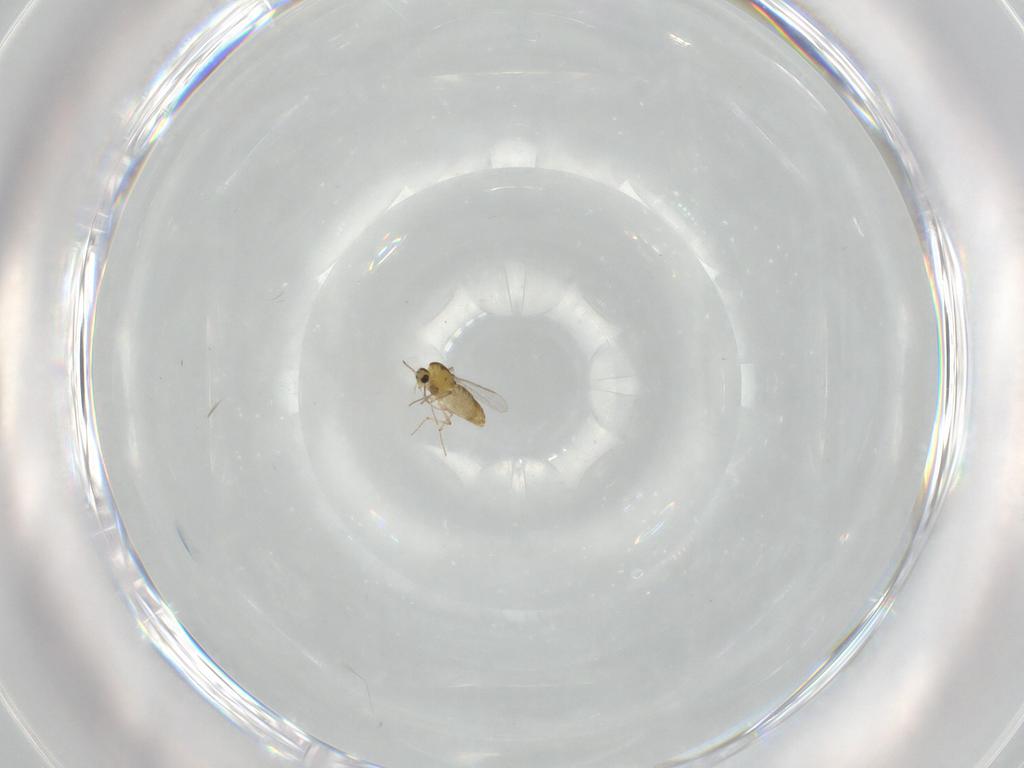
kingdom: Animalia
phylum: Arthropoda
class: Insecta
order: Diptera
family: Chironomidae
